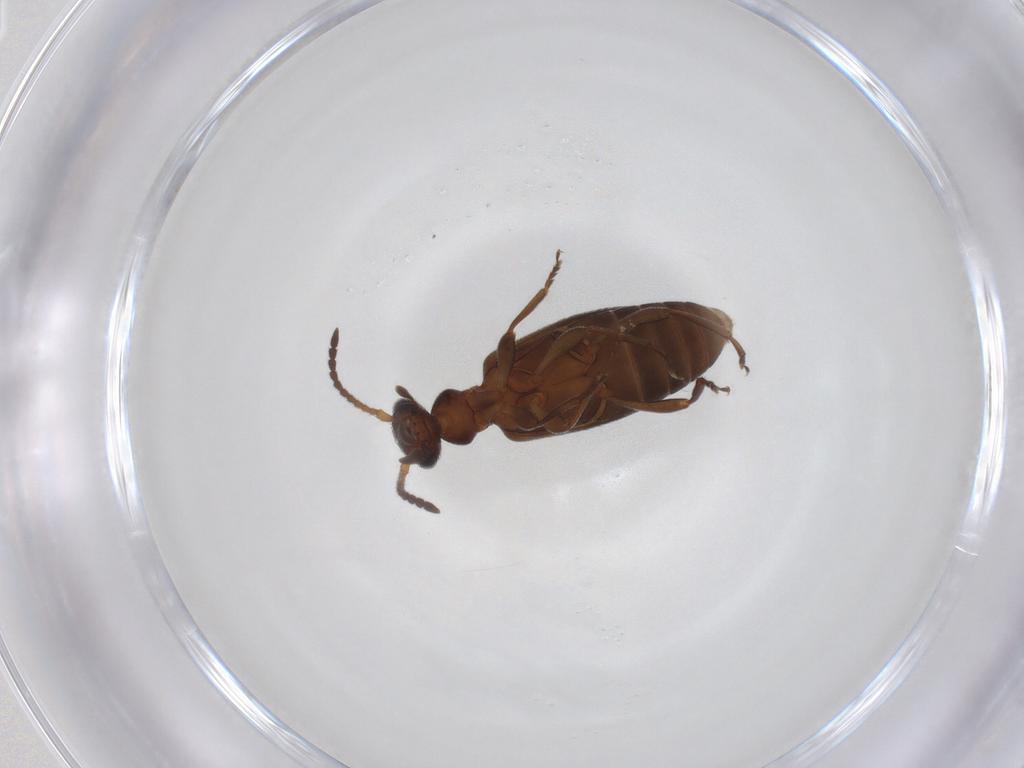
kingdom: Animalia
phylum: Arthropoda
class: Insecta
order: Coleoptera
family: Anthicidae
